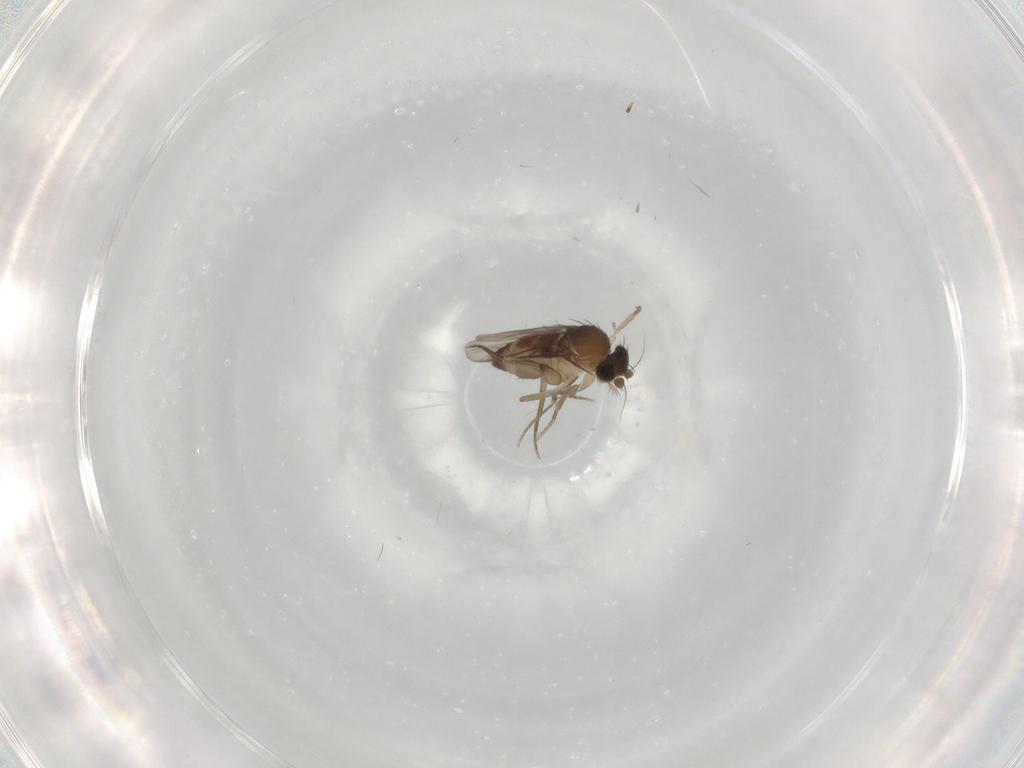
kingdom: Animalia
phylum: Arthropoda
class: Insecta
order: Diptera
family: Phoridae
